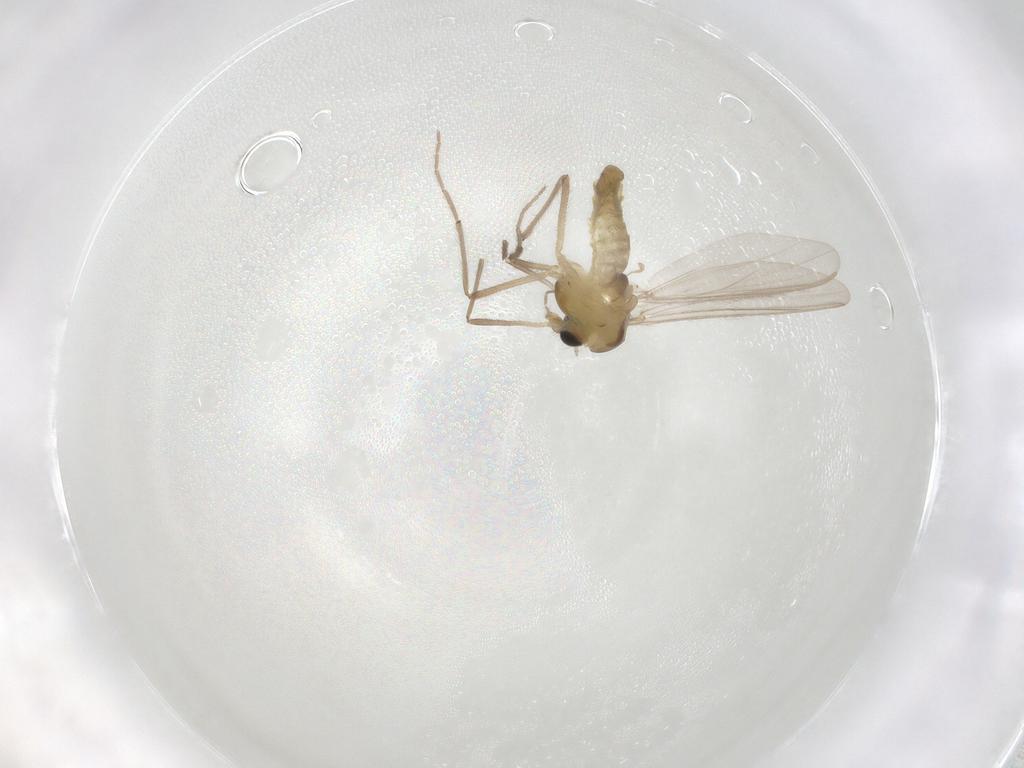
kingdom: Animalia
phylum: Arthropoda
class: Insecta
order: Diptera
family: Chironomidae
